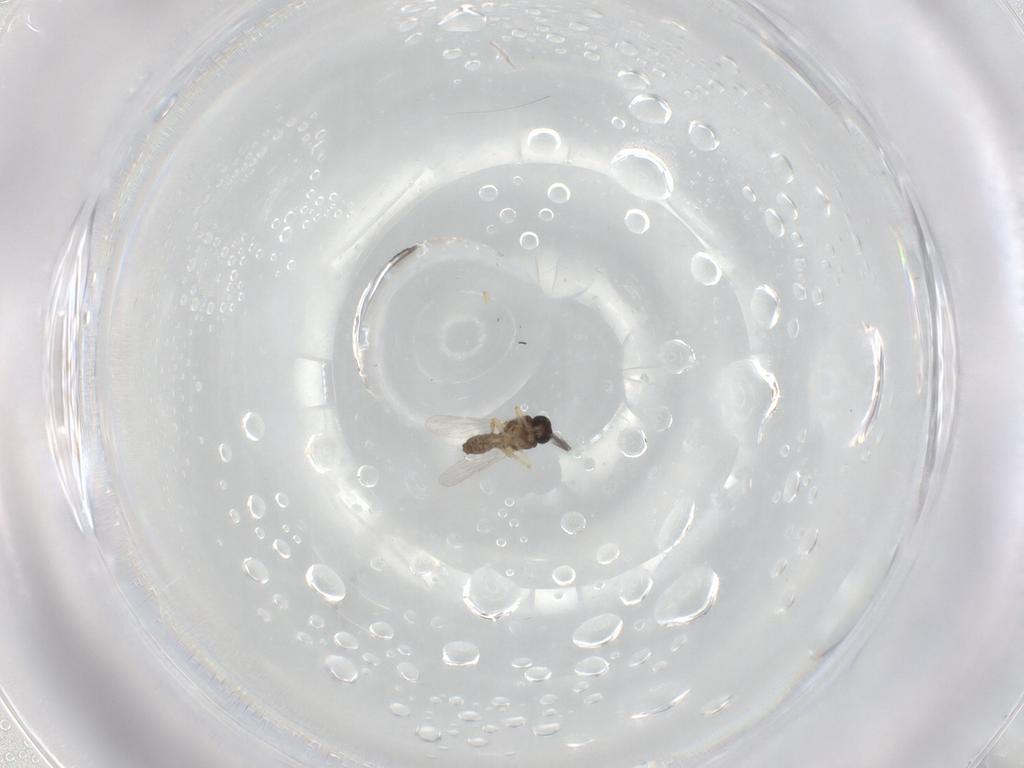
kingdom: Animalia
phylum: Arthropoda
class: Insecta
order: Diptera
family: Ceratopogonidae
